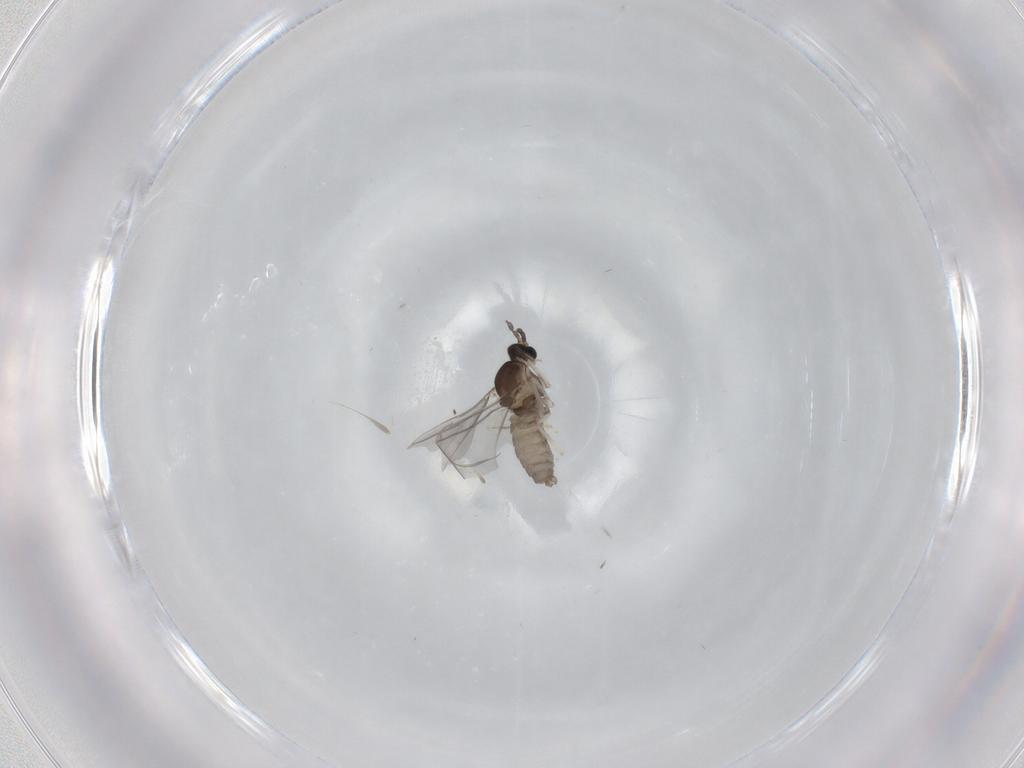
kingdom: Animalia
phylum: Arthropoda
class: Insecta
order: Diptera
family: Cecidomyiidae
